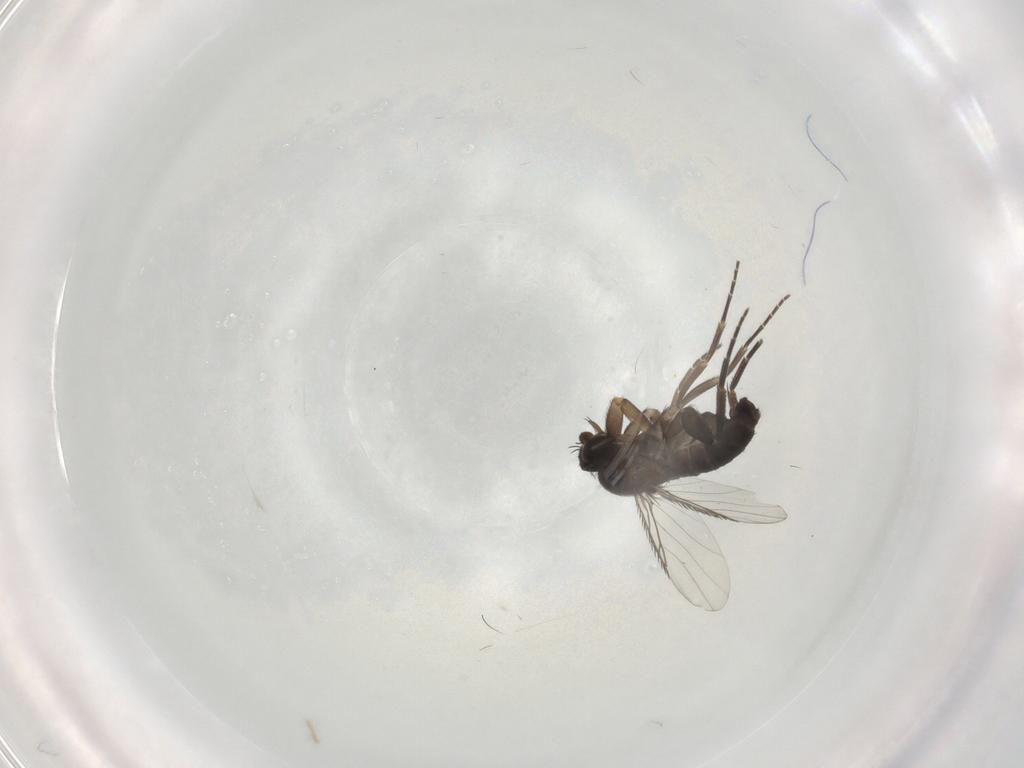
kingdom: Animalia
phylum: Arthropoda
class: Insecta
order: Diptera
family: Phoridae
